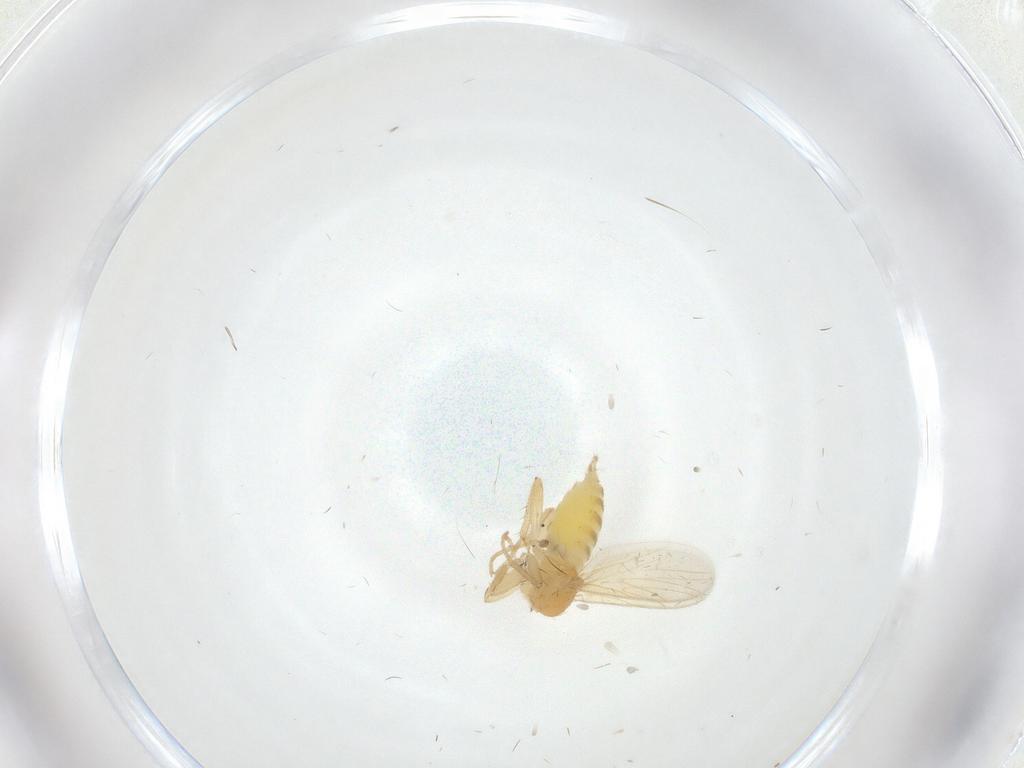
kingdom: Animalia
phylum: Arthropoda
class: Insecta
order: Diptera
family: Hybotidae
